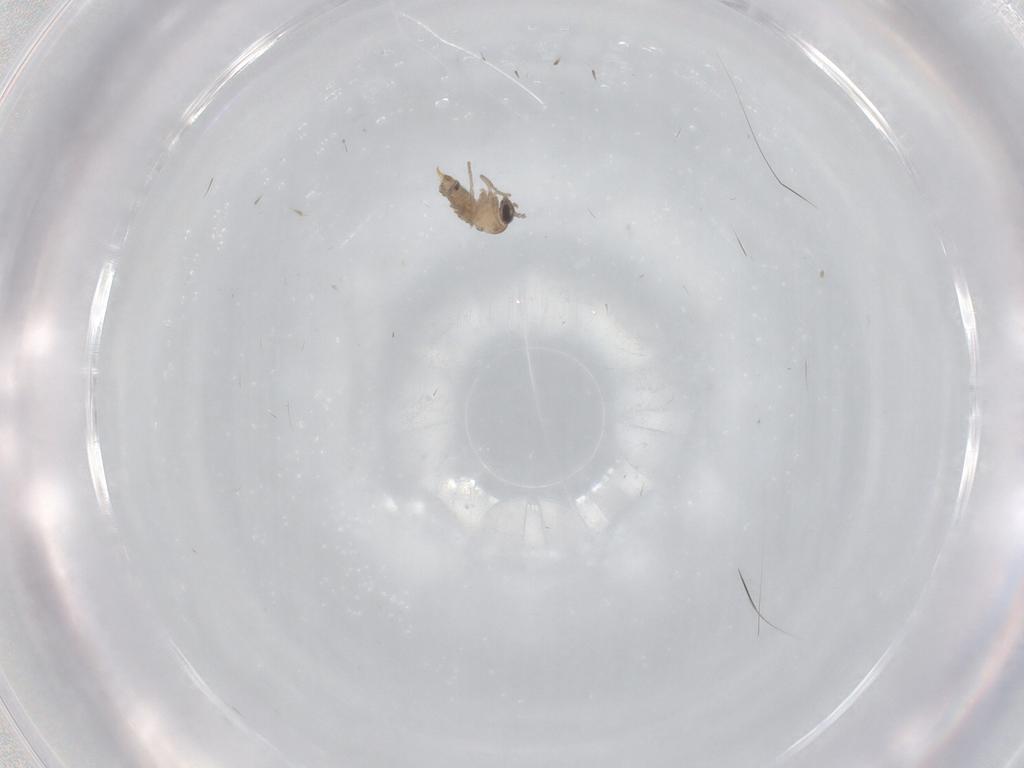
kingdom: Animalia
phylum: Arthropoda
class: Insecta
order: Diptera
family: Psychodidae
